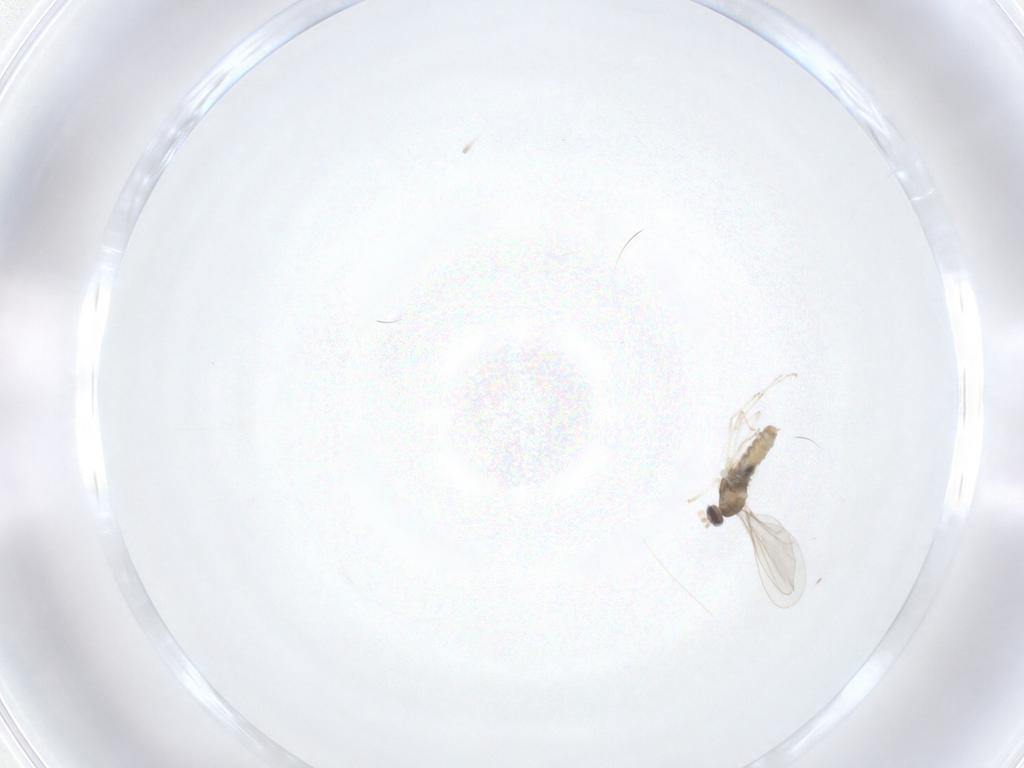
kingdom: Animalia
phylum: Arthropoda
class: Insecta
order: Diptera
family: Cecidomyiidae
